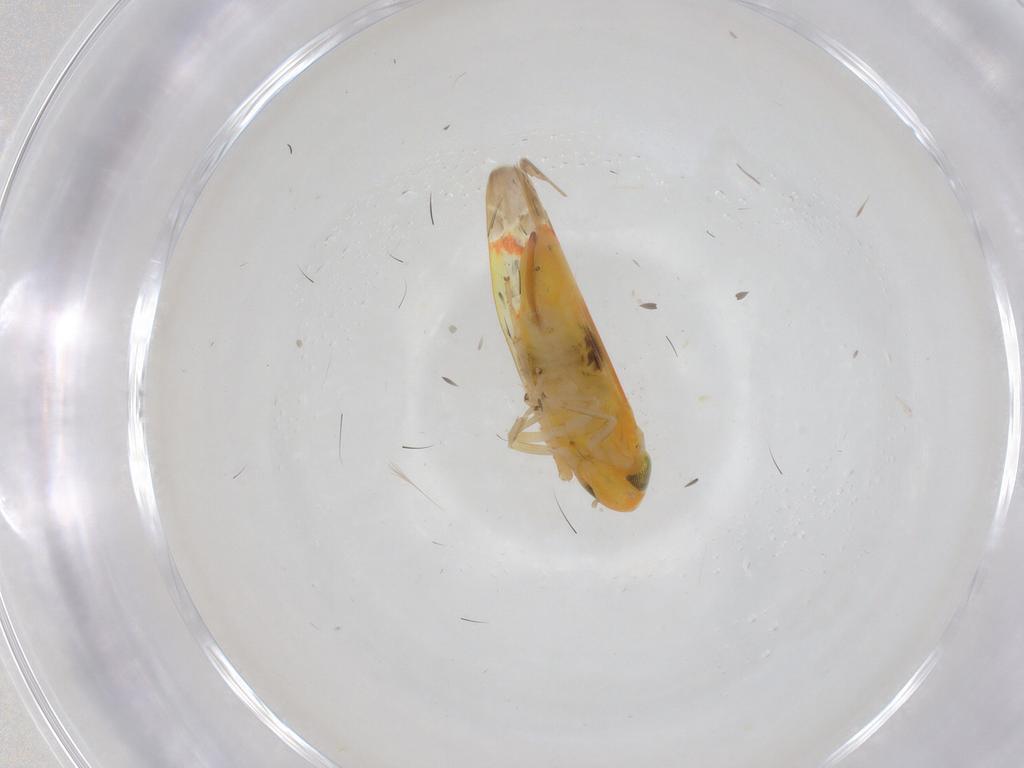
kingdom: Animalia
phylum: Arthropoda
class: Insecta
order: Hemiptera
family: Cicadellidae
